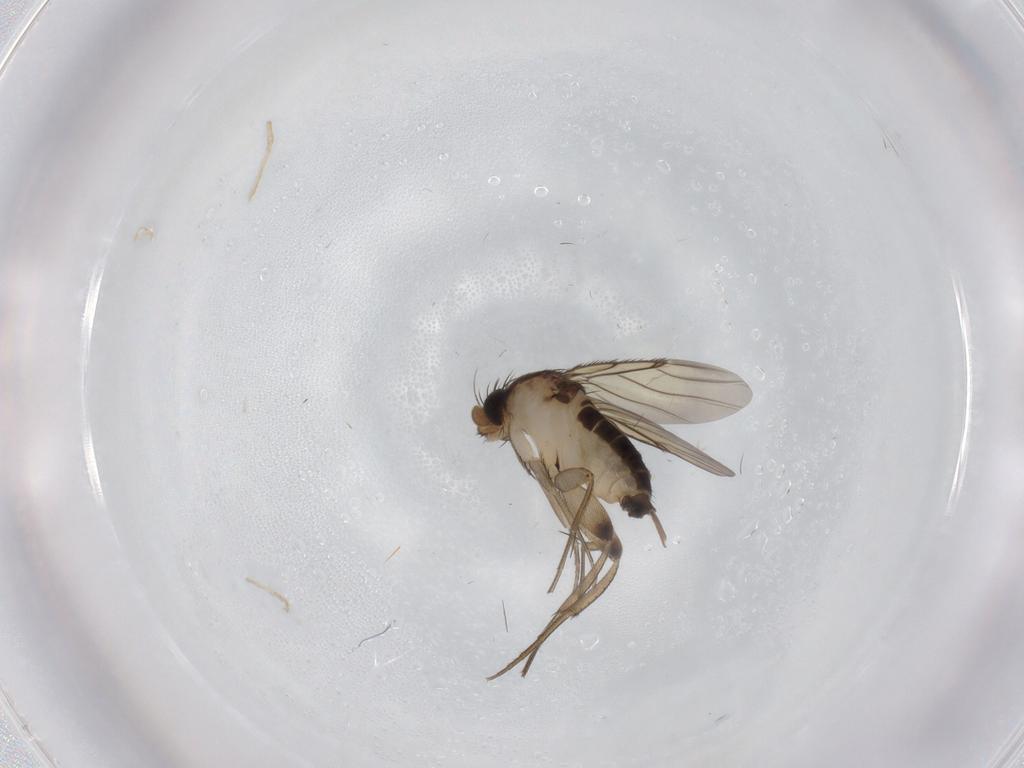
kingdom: Animalia
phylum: Arthropoda
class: Insecta
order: Diptera
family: Phoridae
